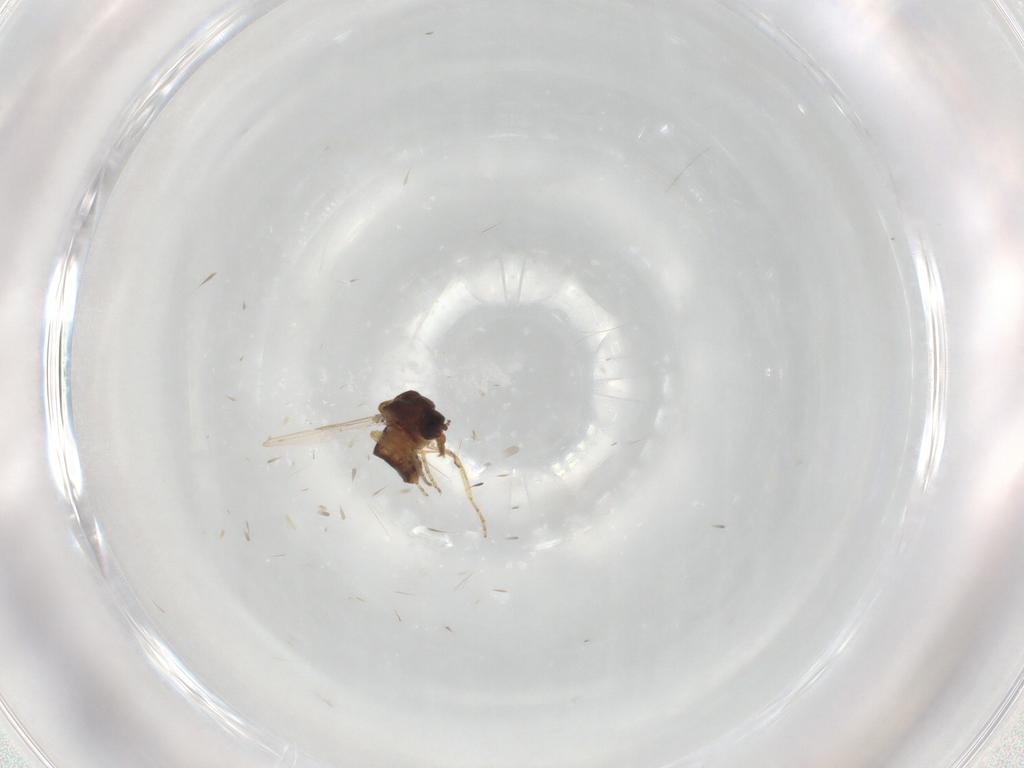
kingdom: Animalia
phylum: Arthropoda
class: Insecta
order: Diptera
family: Ceratopogonidae
